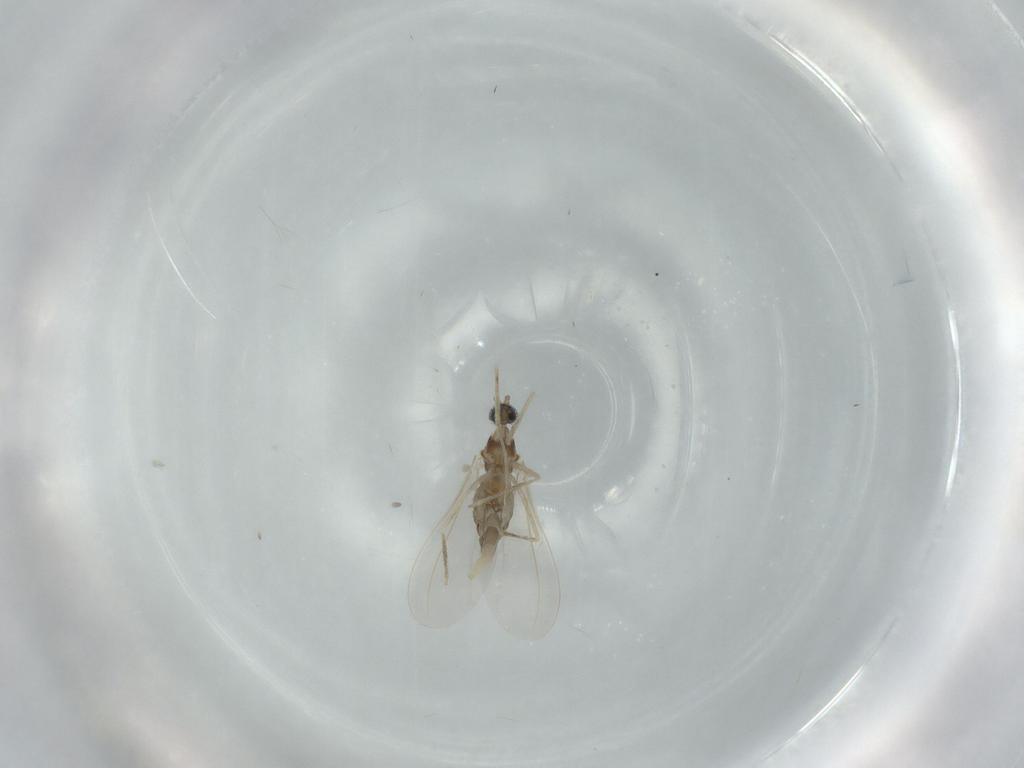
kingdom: Animalia
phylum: Arthropoda
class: Insecta
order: Diptera
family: Cecidomyiidae
